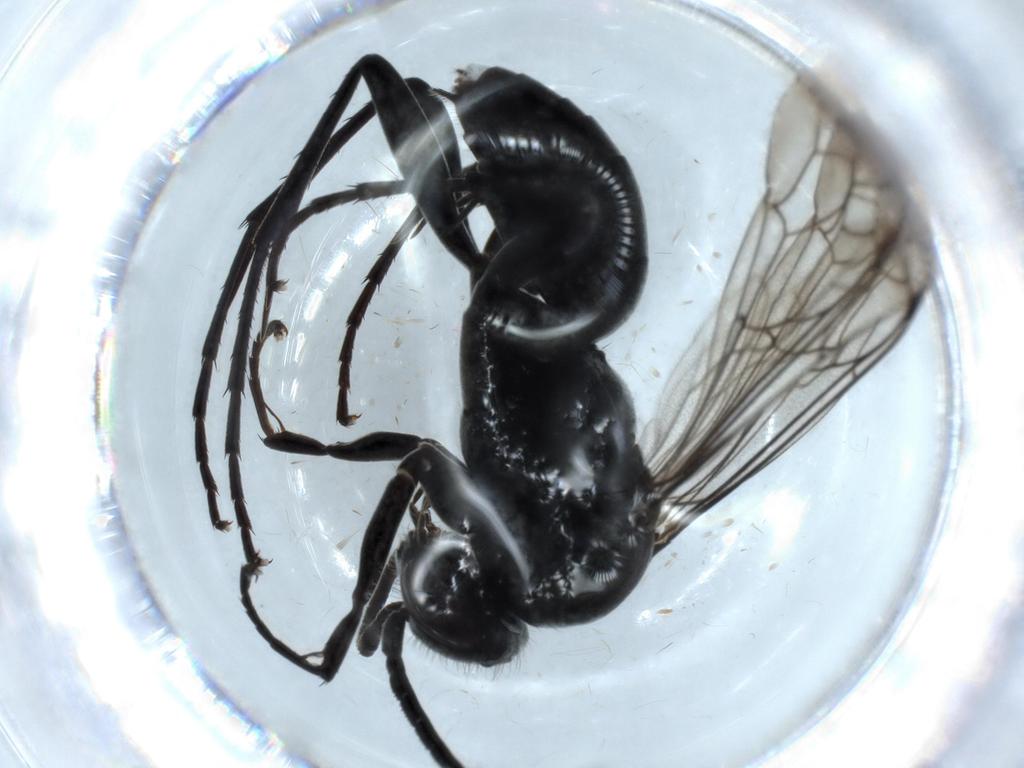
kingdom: Animalia
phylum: Arthropoda
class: Insecta
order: Hymenoptera
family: Formicidae
